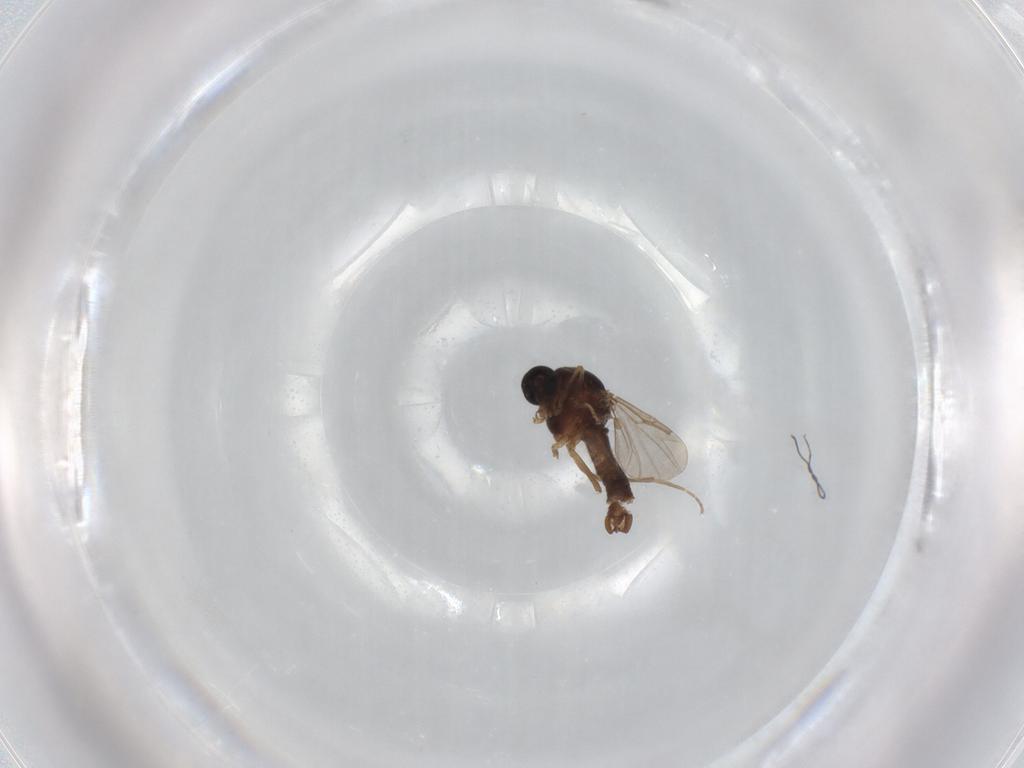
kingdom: Animalia
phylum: Arthropoda
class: Insecta
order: Diptera
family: Ceratopogonidae
